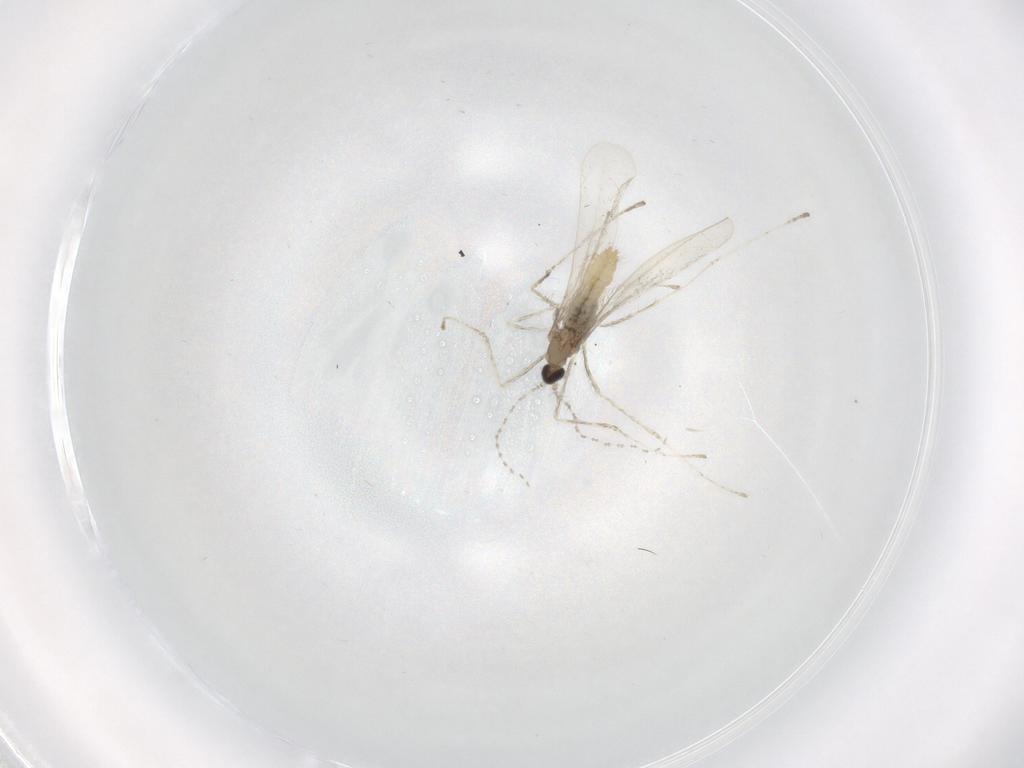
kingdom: Animalia
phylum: Arthropoda
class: Insecta
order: Diptera
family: Cecidomyiidae
